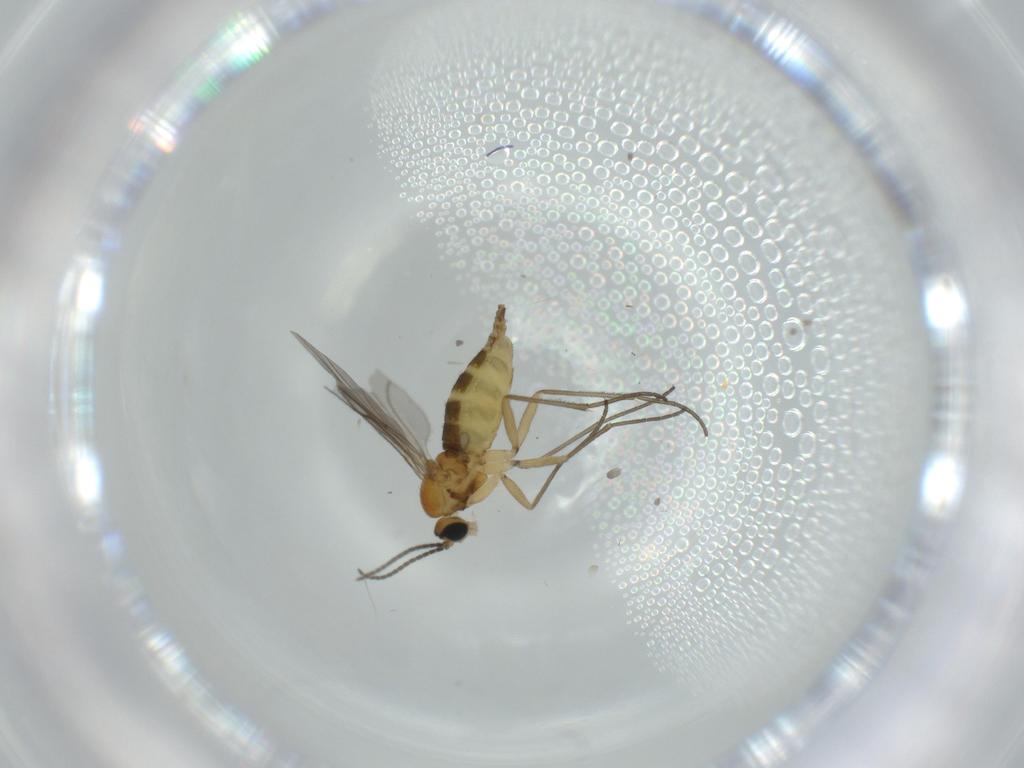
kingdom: Animalia
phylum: Arthropoda
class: Insecta
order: Diptera
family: Sciaridae
